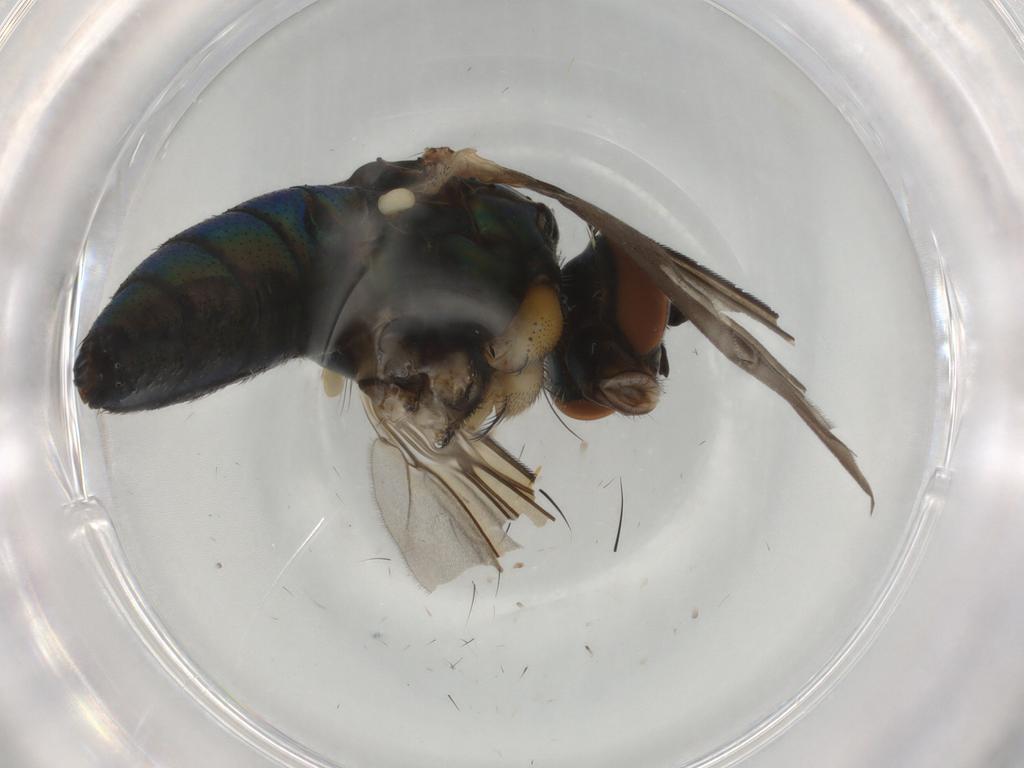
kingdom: Animalia
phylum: Arthropoda
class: Insecta
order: Diptera
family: Dolichopodidae
